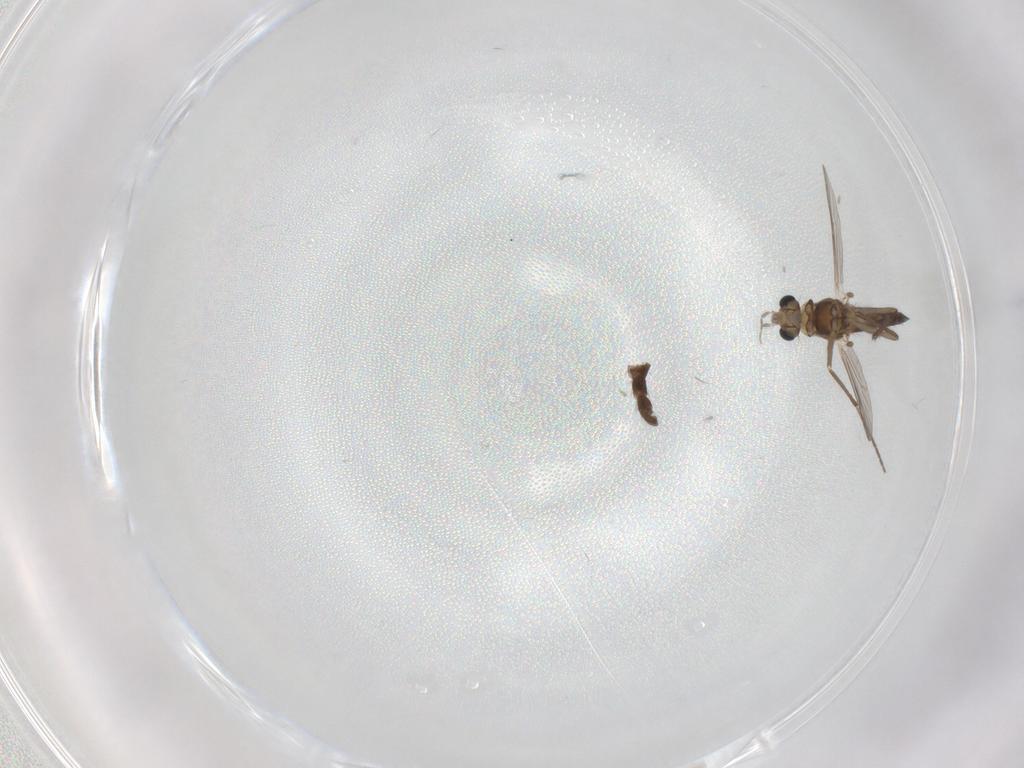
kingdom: Animalia
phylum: Arthropoda
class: Insecta
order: Diptera
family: Chironomidae
